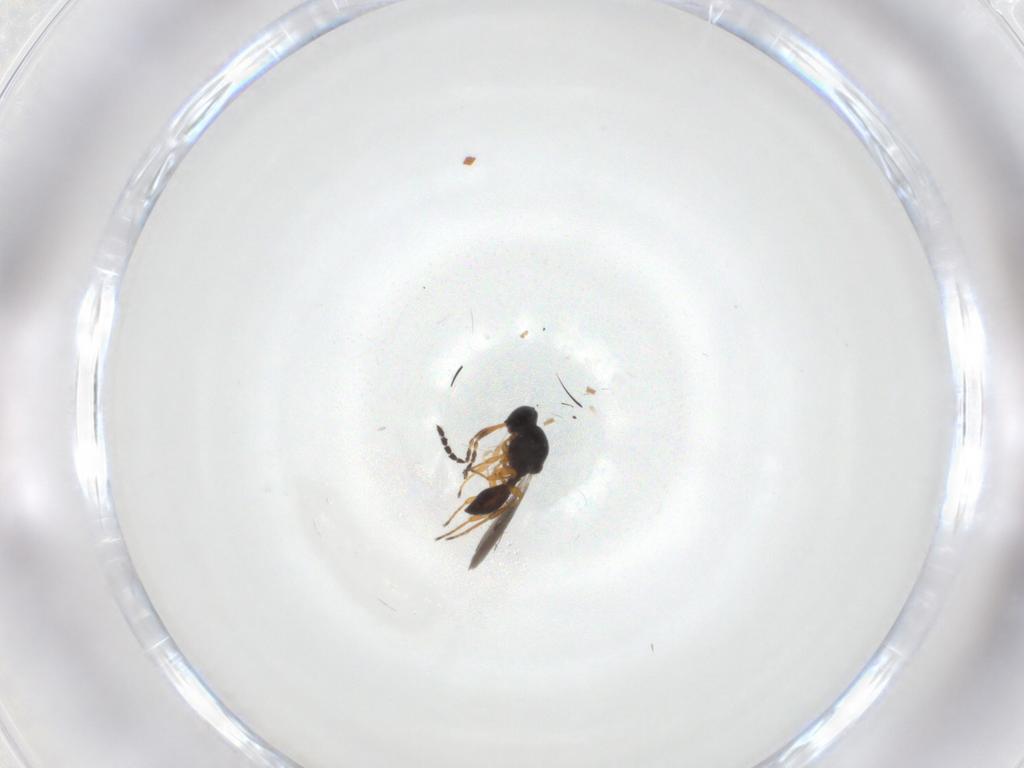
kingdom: Animalia
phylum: Arthropoda
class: Insecta
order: Hymenoptera
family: Platygastridae
